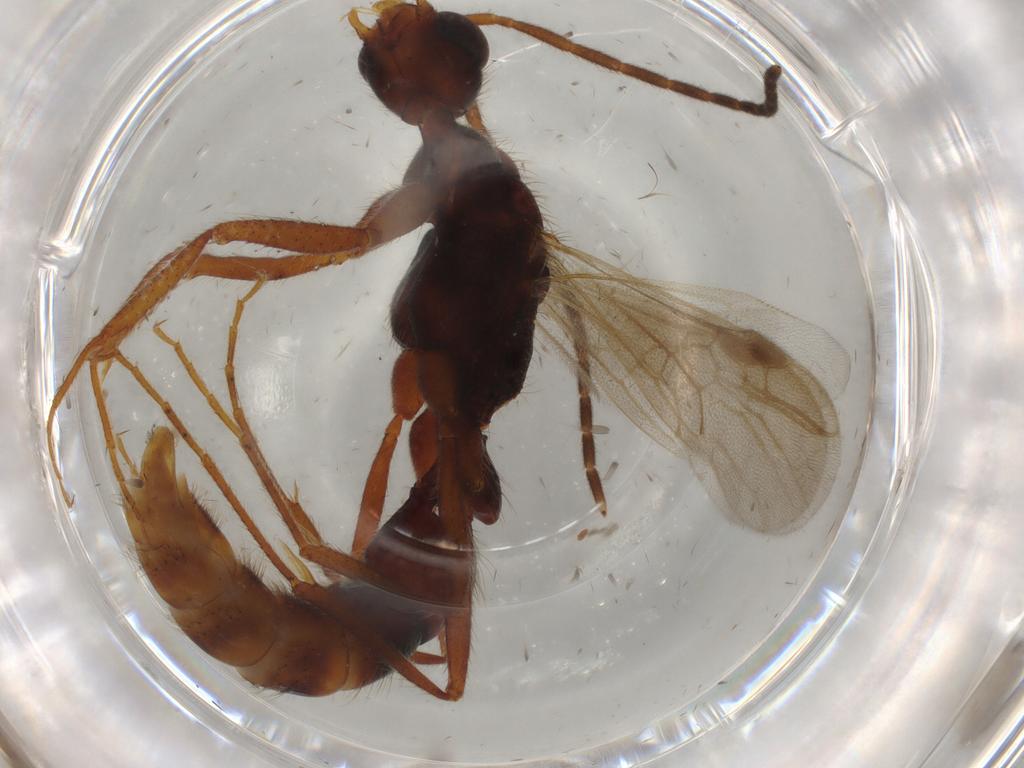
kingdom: Animalia
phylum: Arthropoda
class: Insecta
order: Hymenoptera
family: Formicidae
